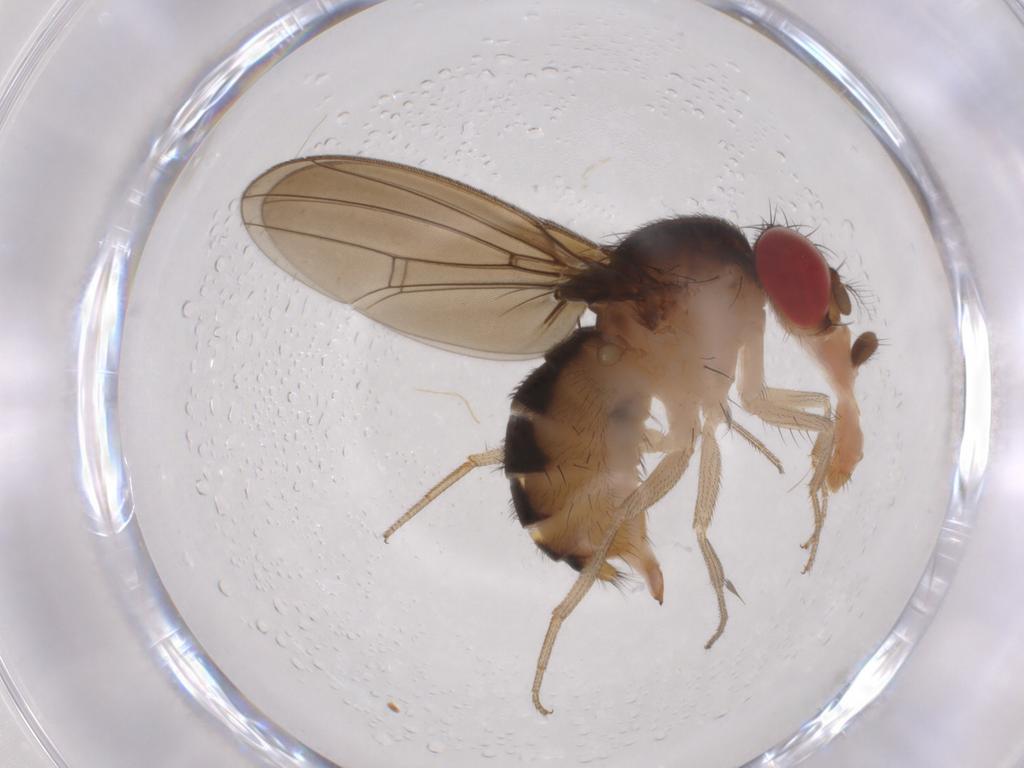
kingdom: Animalia
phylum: Arthropoda
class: Insecta
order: Diptera
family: Drosophilidae
